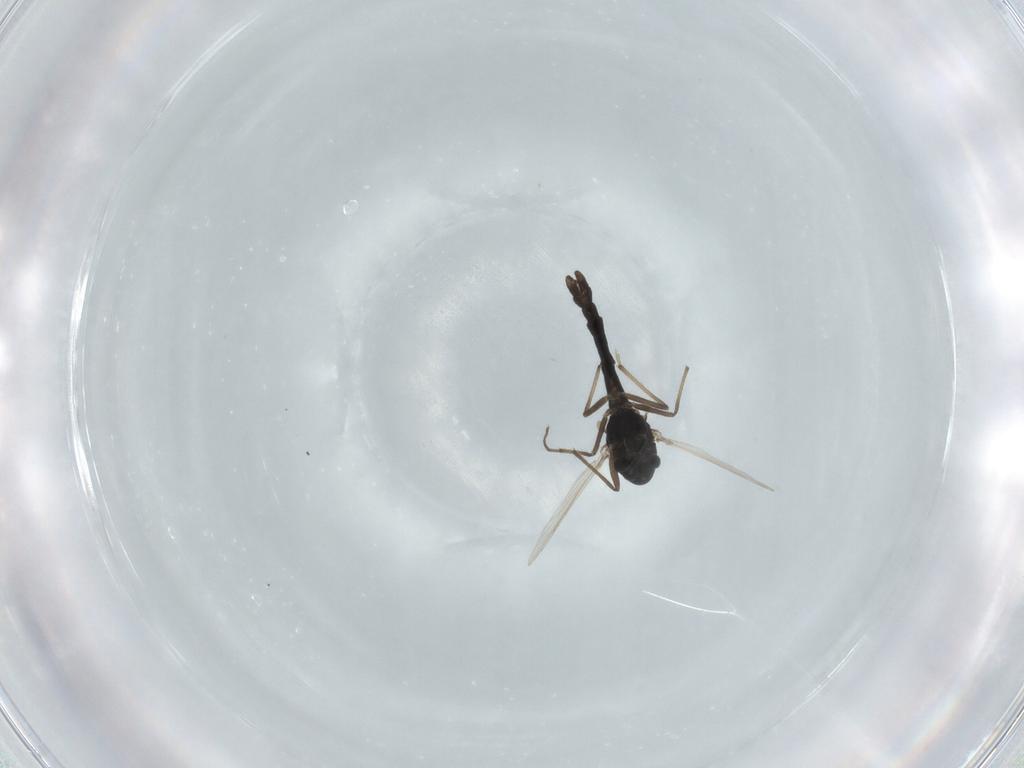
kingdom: Animalia
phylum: Arthropoda
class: Insecta
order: Diptera
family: Chironomidae
